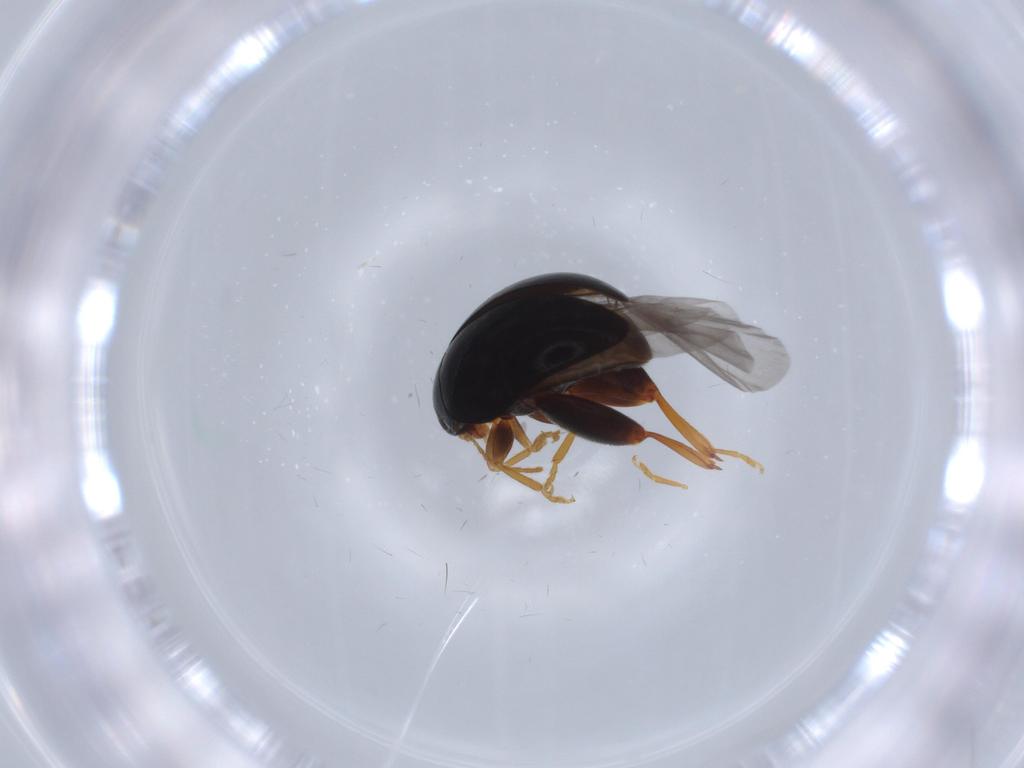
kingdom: Animalia
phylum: Arthropoda
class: Insecta
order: Coleoptera
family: Chrysomelidae
